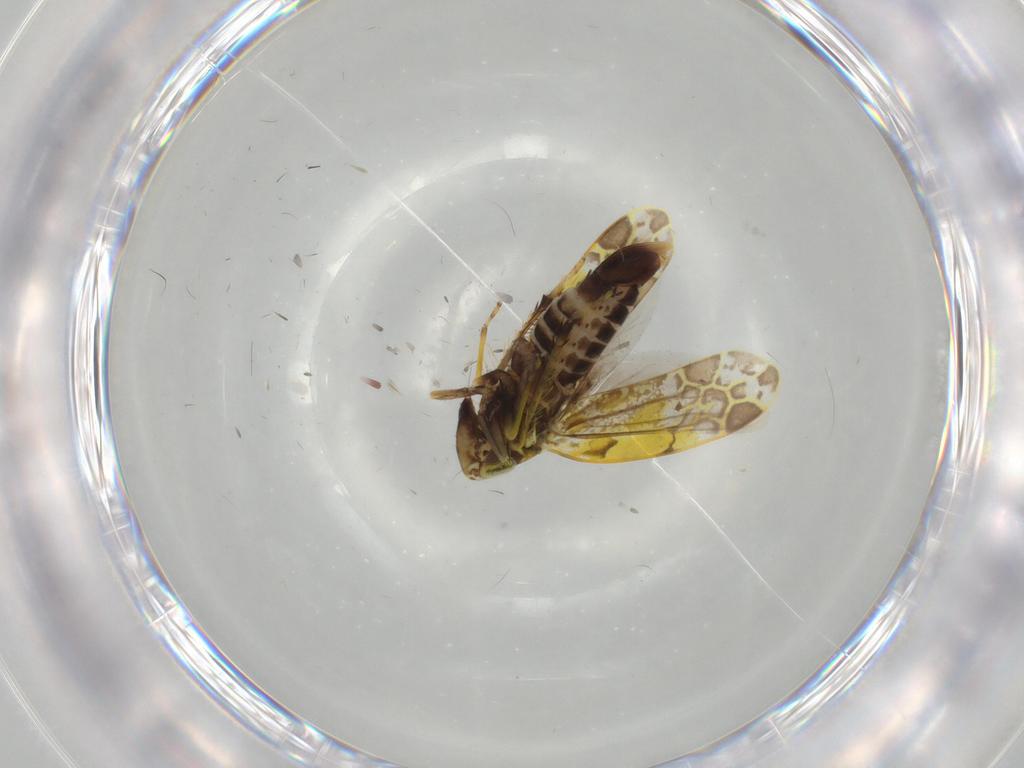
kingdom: Animalia
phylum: Arthropoda
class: Insecta
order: Hemiptera
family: Cicadellidae
